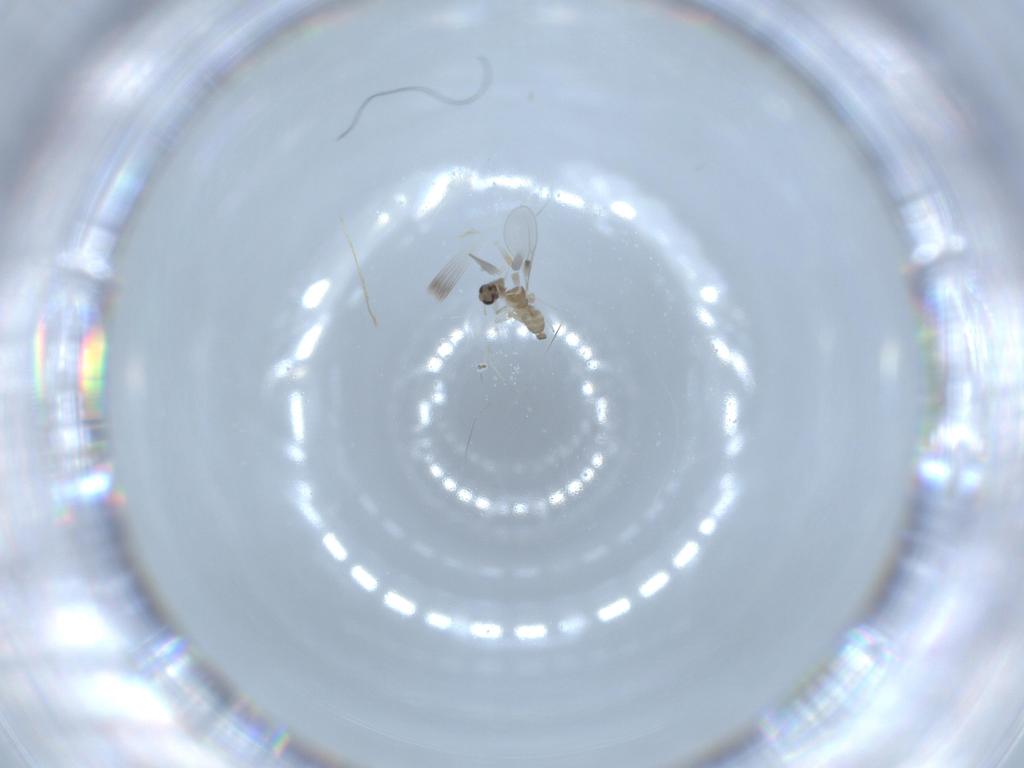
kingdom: Animalia
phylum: Arthropoda
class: Insecta
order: Diptera
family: Cecidomyiidae
